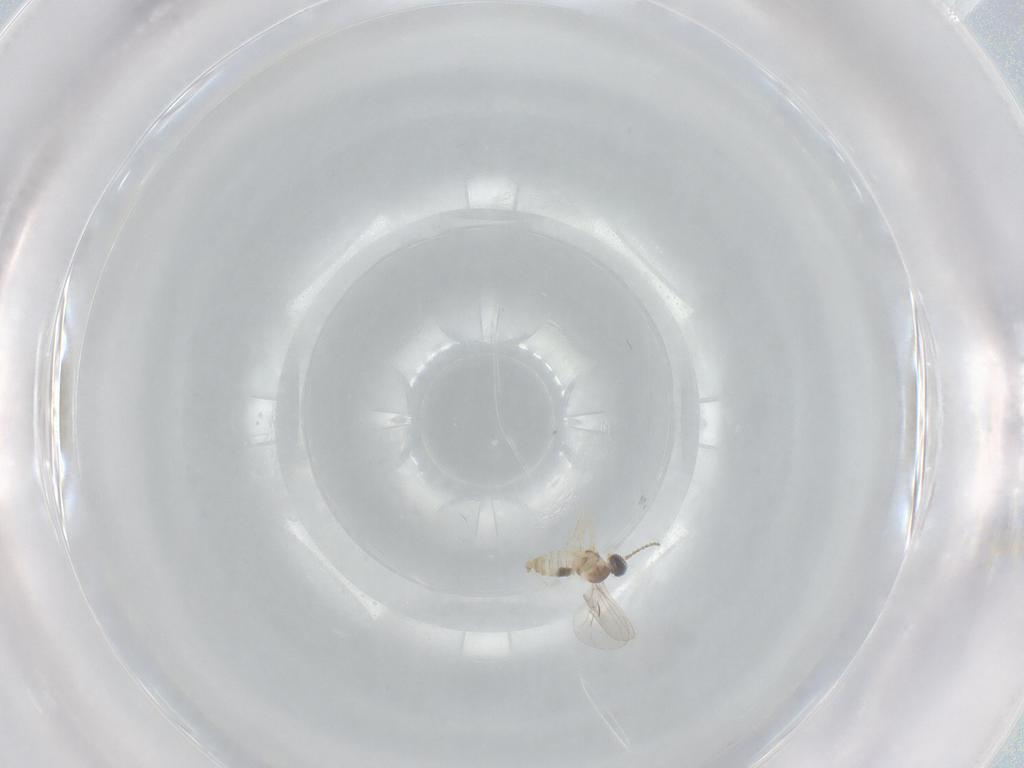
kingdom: Animalia
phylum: Arthropoda
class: Insecta
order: Diptera
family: Cecidomyiidae
